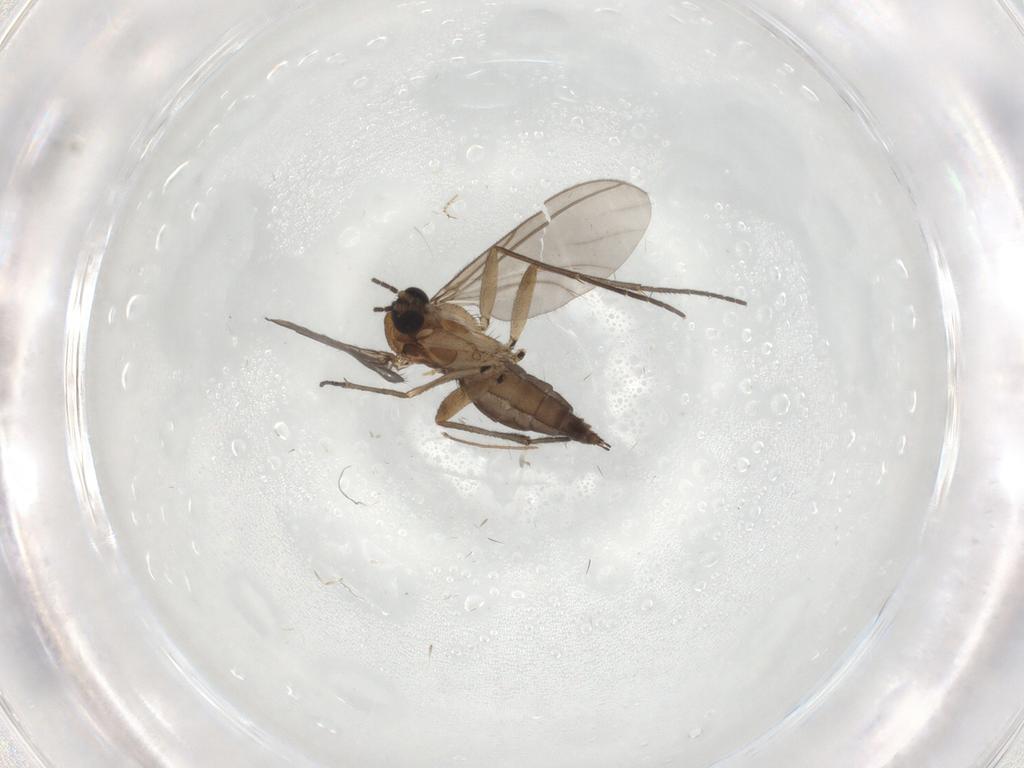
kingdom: Animalia
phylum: Arthropoda
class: Insecta
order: Diptera
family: Sciaridae
